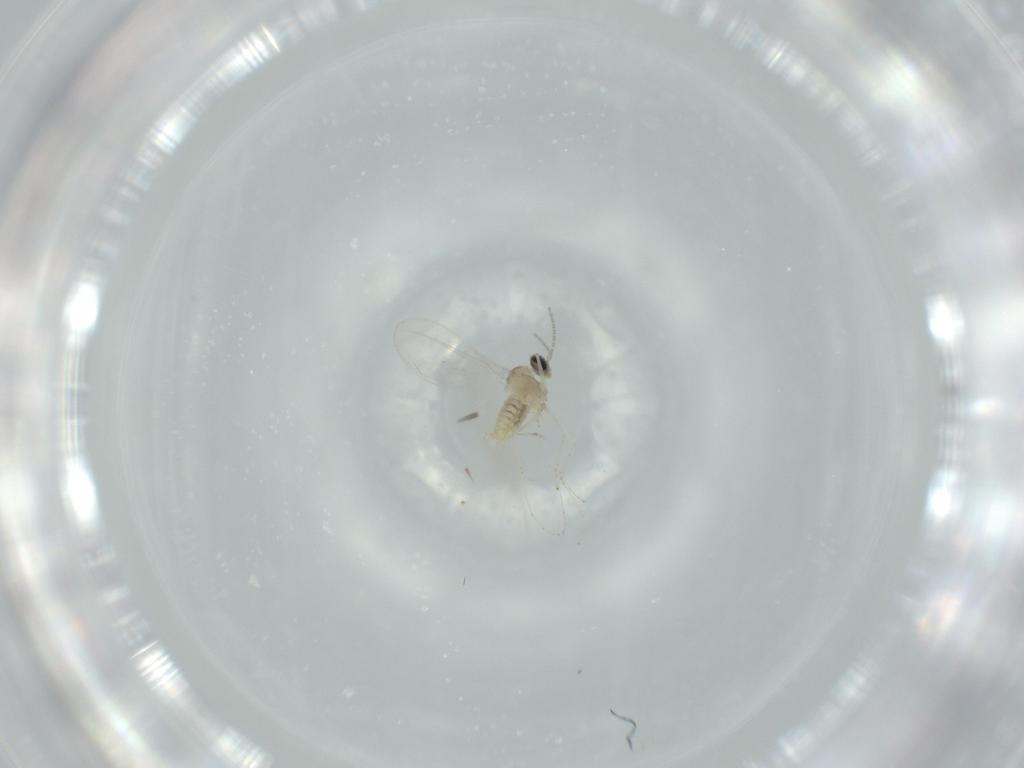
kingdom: Animalia
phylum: Arthropoda
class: Insecta
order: Diptera
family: Cecidomyiidae
